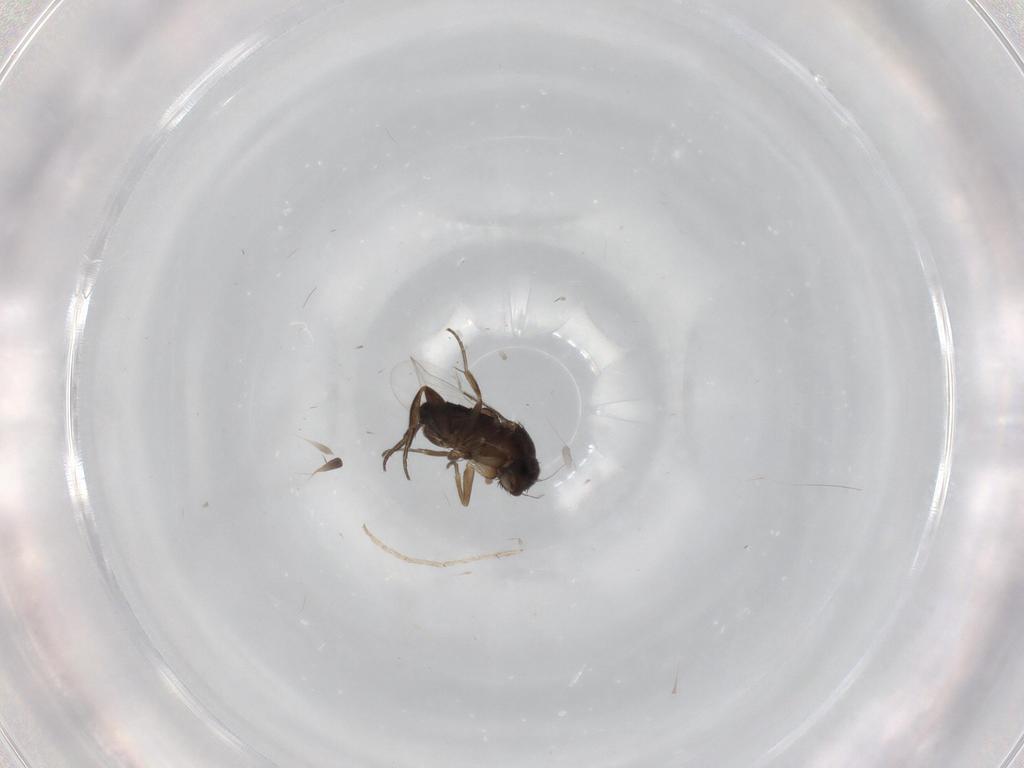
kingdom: Animalia
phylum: Arthropoda
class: Insecta
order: Diptera
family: Phoridae
